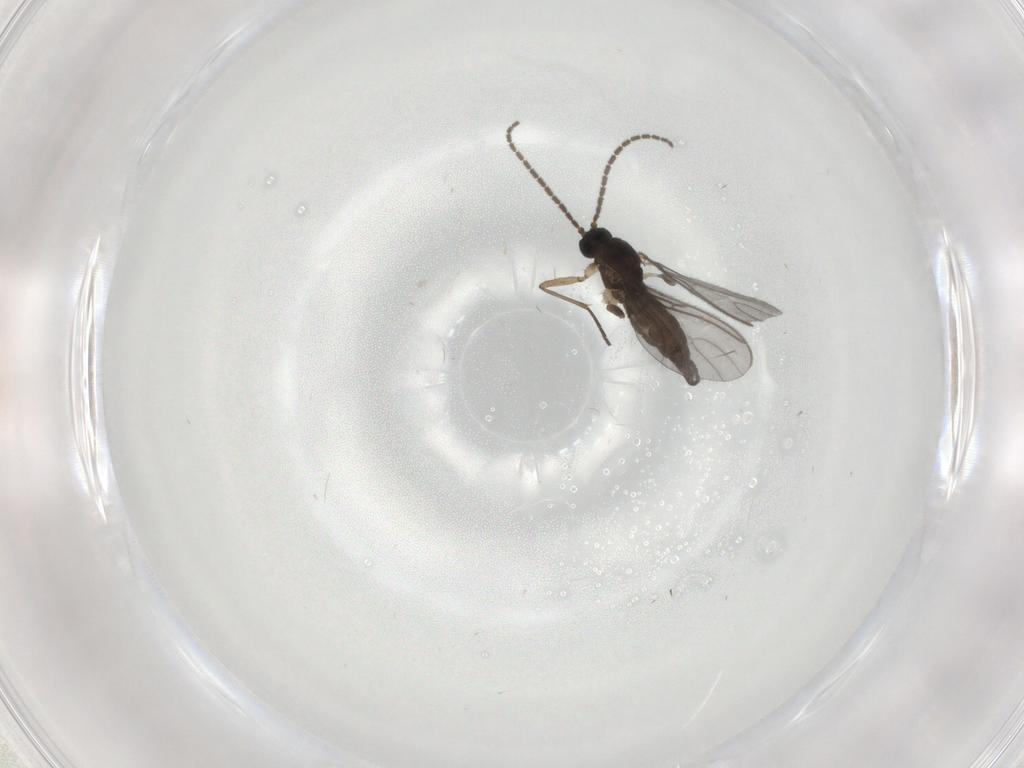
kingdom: Animalia
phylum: Arthropoda
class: Insecta
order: Diptera
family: Sciaridae
